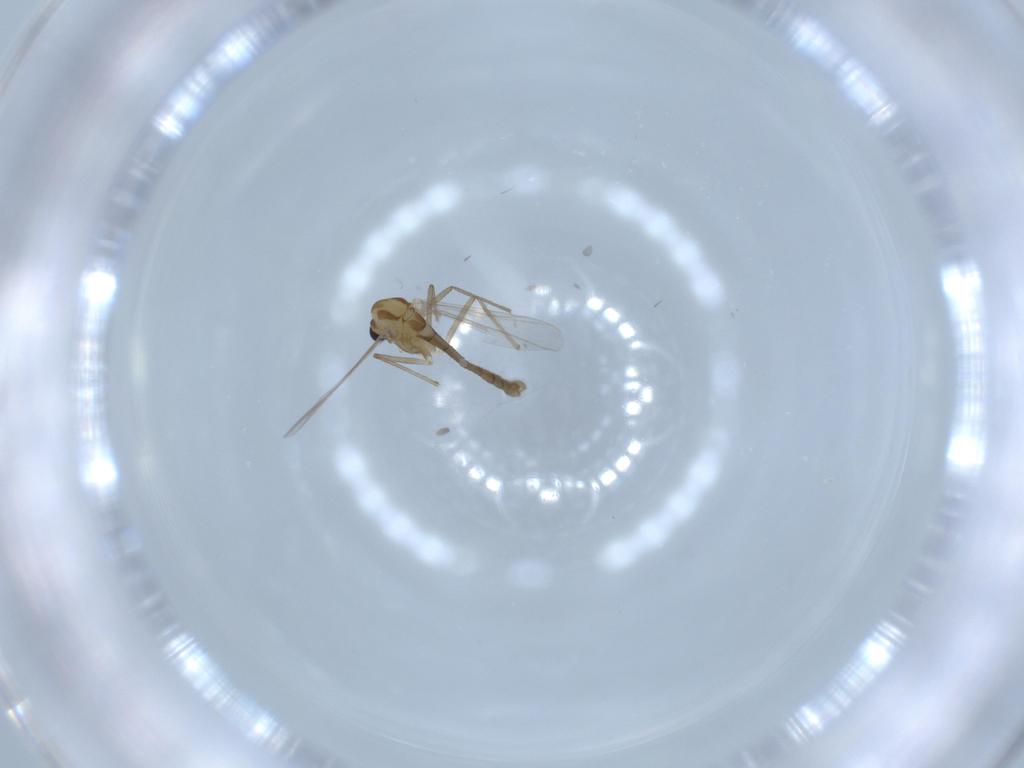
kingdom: Animalia
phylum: Arthropoda
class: Insecta
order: Diptera
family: Chironomidae
